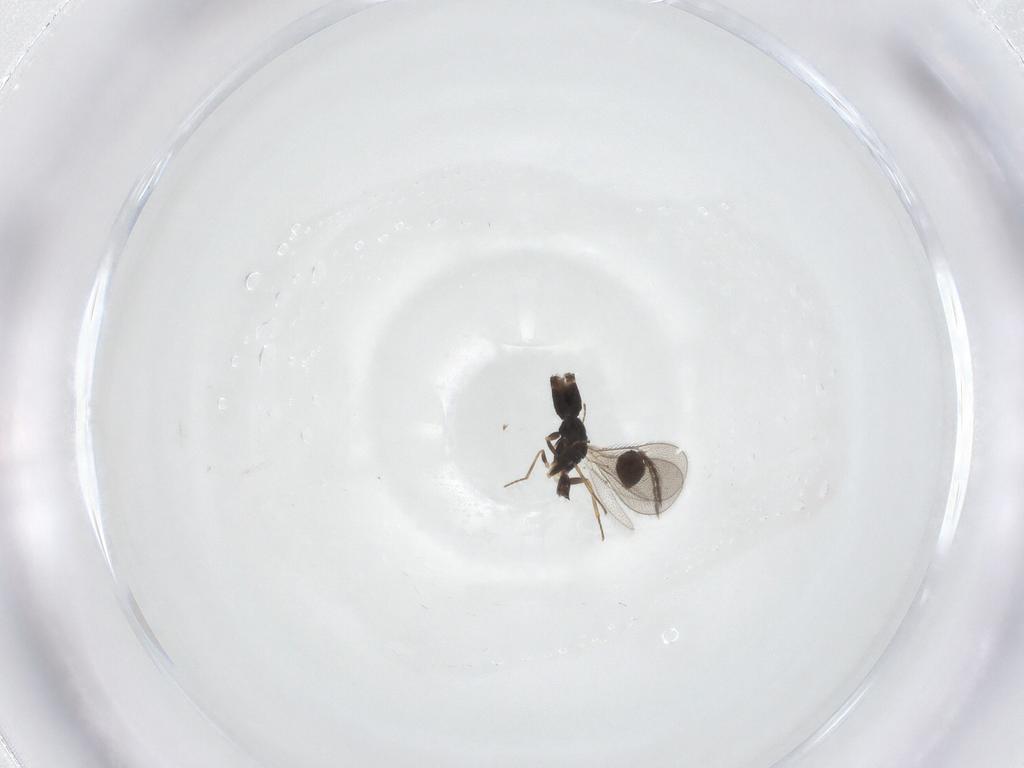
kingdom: Animalia
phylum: Arthropoda
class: Insecta
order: Hymenoptera
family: Eulophidae
